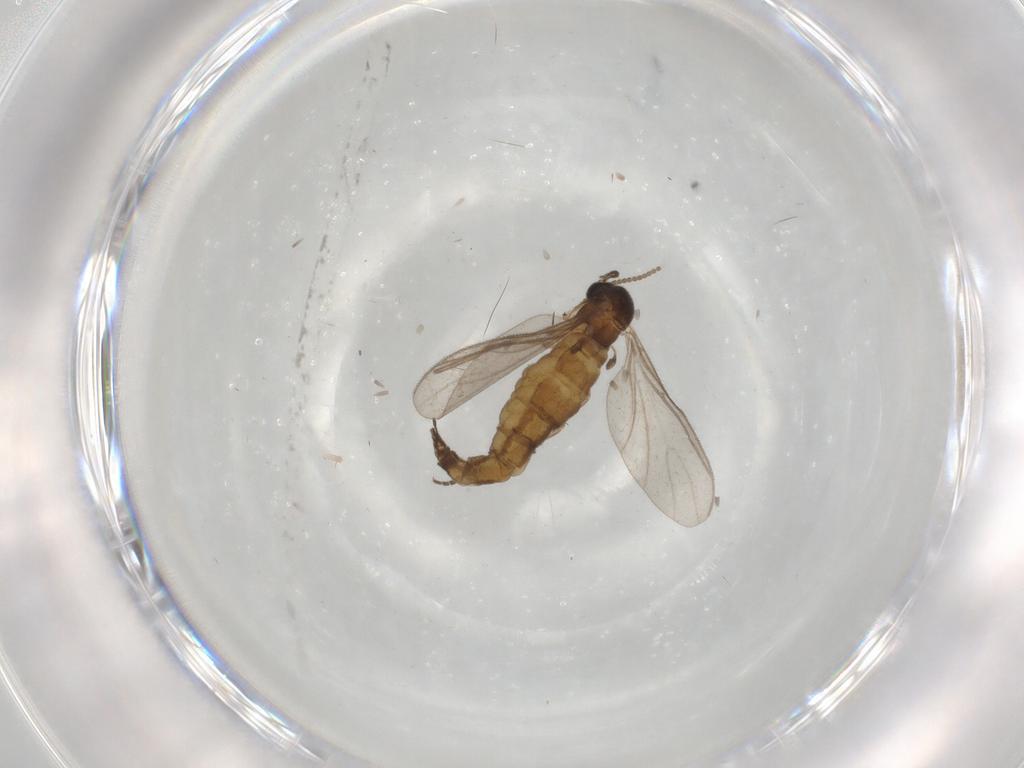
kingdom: Animalia
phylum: Arthropoda
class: Insecta
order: Diptera
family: Sciaridae
